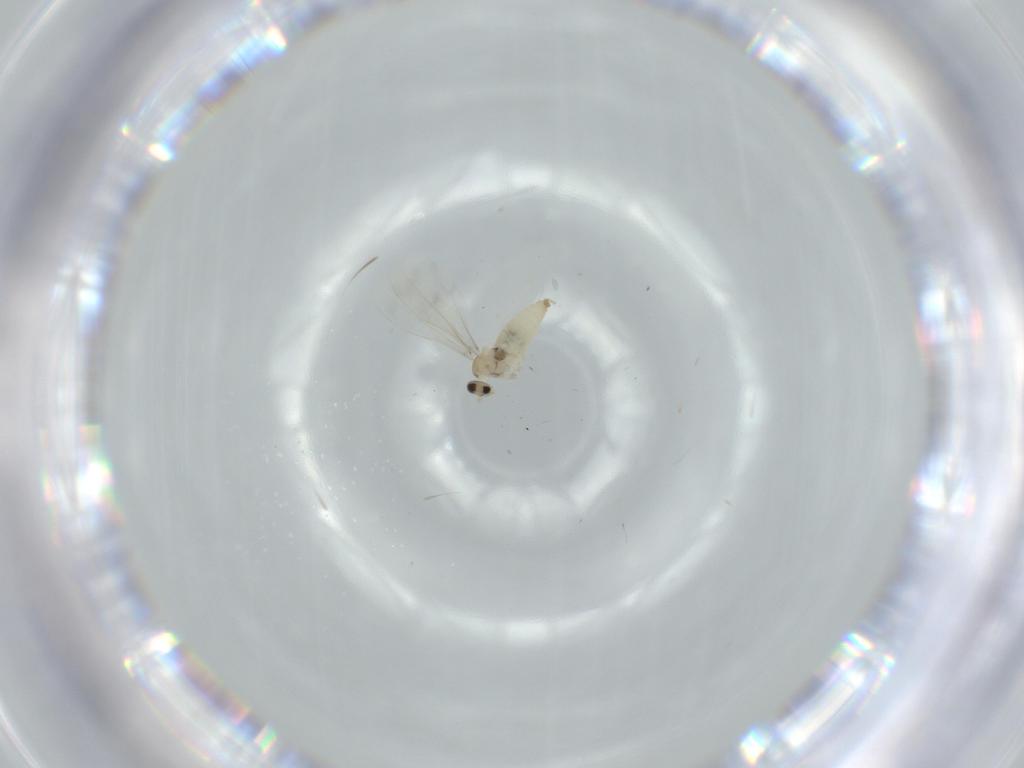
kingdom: Animalia
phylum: Arthropoda
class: Insecta
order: Diptera
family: Cecidomyiidae
